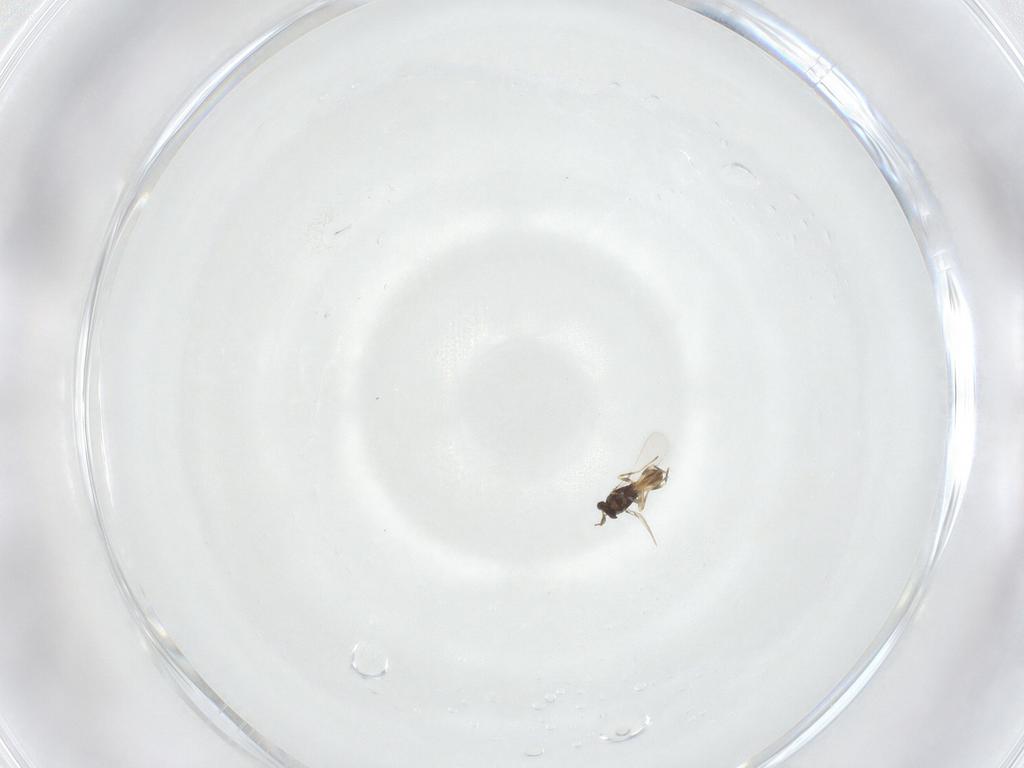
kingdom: Animalia
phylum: Arthropoda
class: Insecta
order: Hymenoptera
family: Mymaridae
